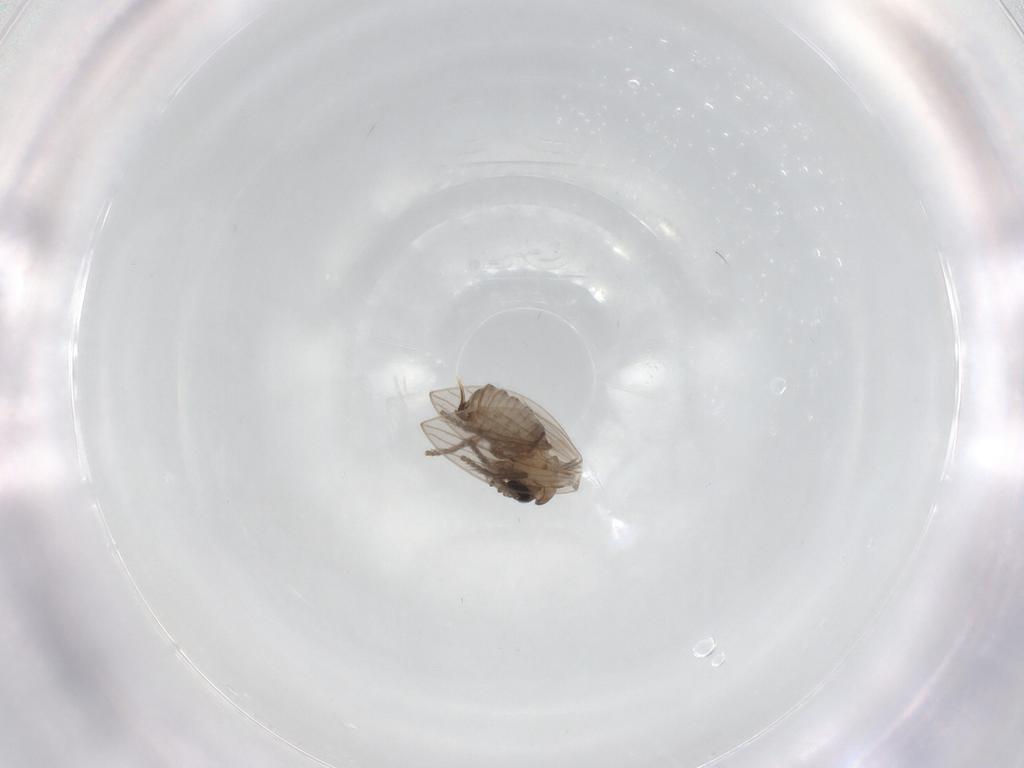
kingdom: Animalia
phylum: Arthropoda
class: Insecta
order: Diptera
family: Psychodidae
